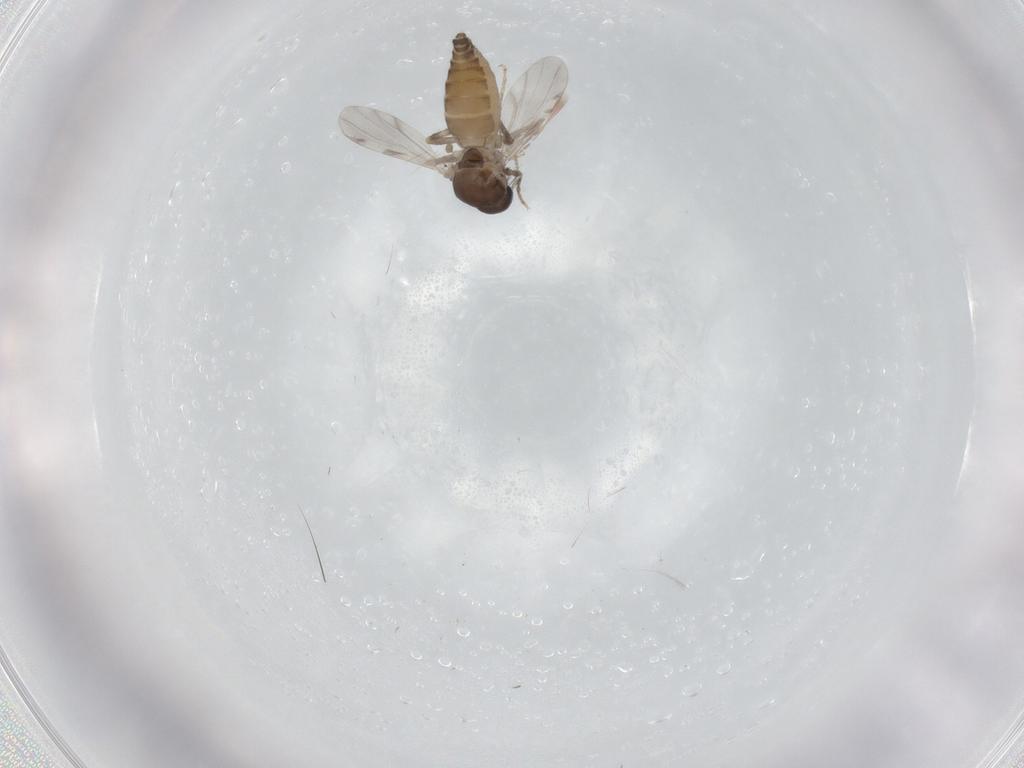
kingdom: Animalia
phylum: Arthropoda
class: Insecta
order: Diptera
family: Ceratopogonidae
